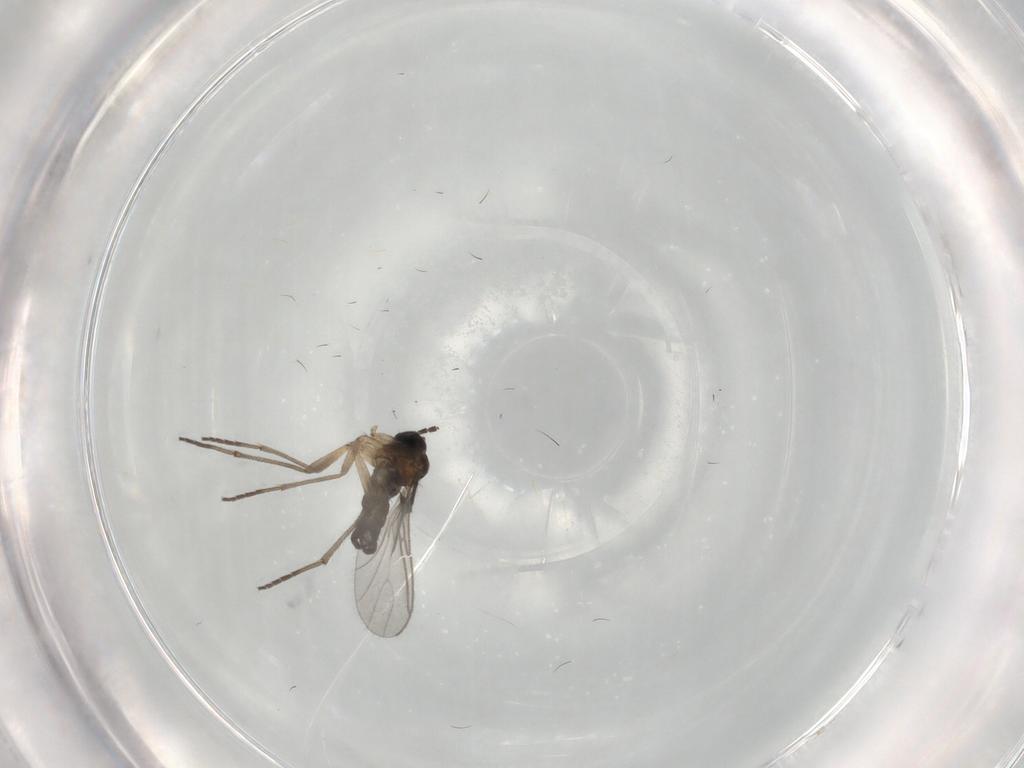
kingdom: Animalia
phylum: Arthropoda
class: Insecta
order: Diptera
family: Sciaridae
